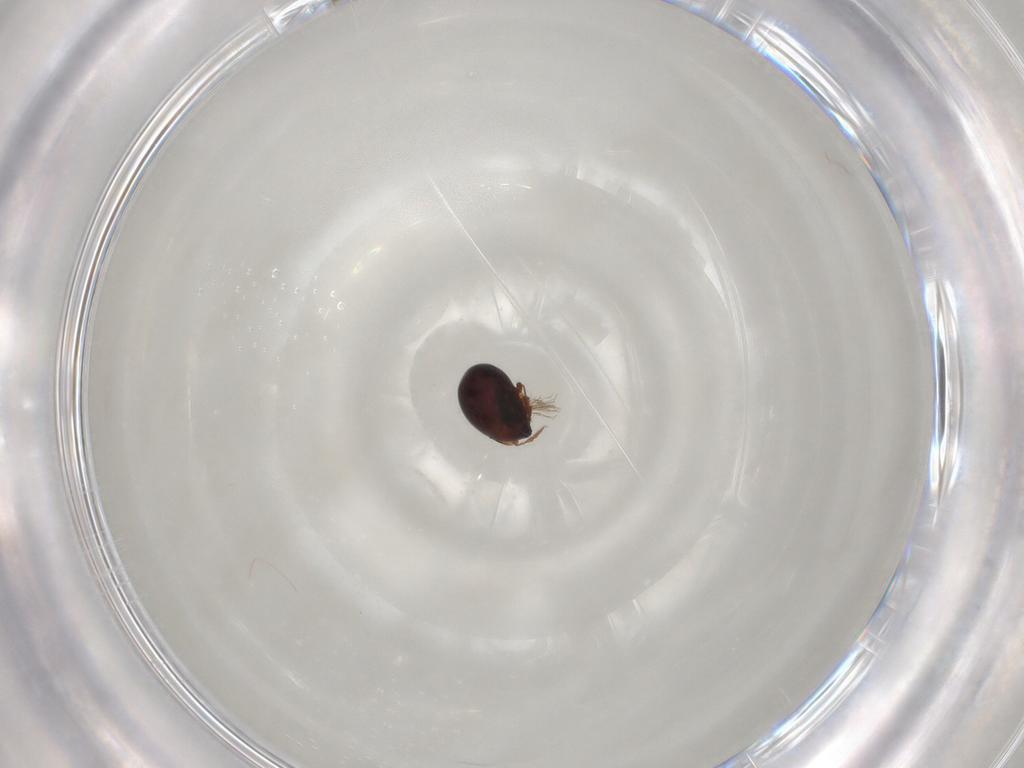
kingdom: Animalia
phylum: Arthropoda
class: Arachnida
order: Sarcoptiformes
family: Galumnidae
